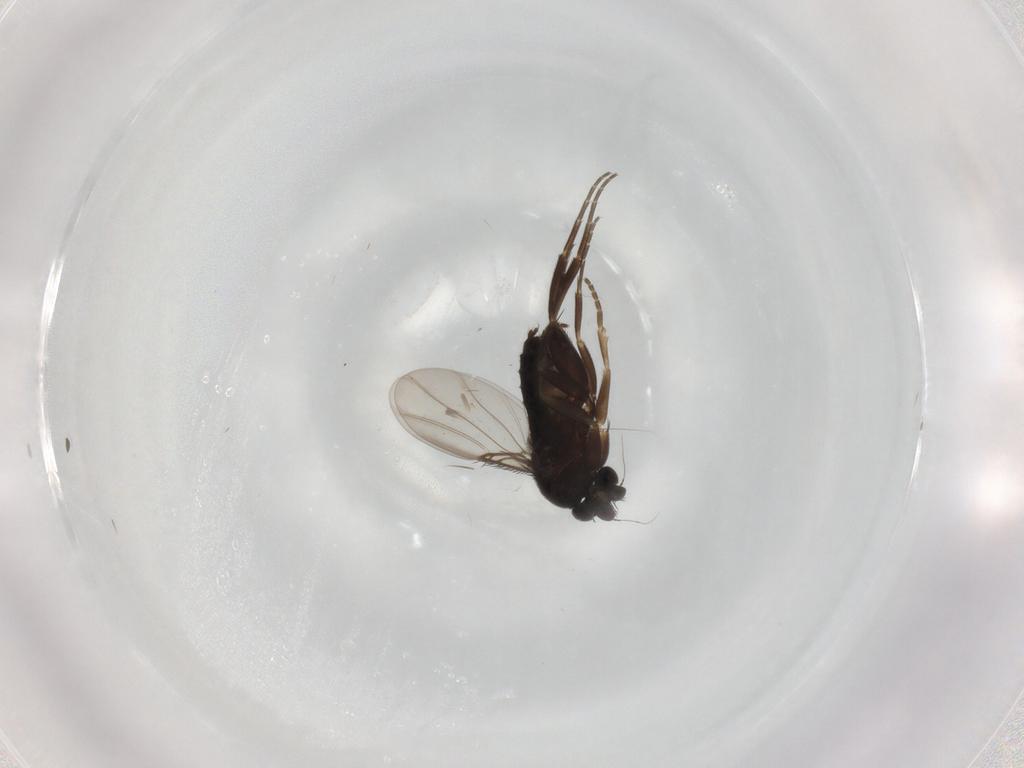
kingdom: Animalia
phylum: Arthropoda
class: Insecta
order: Diptera
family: Phoridae
